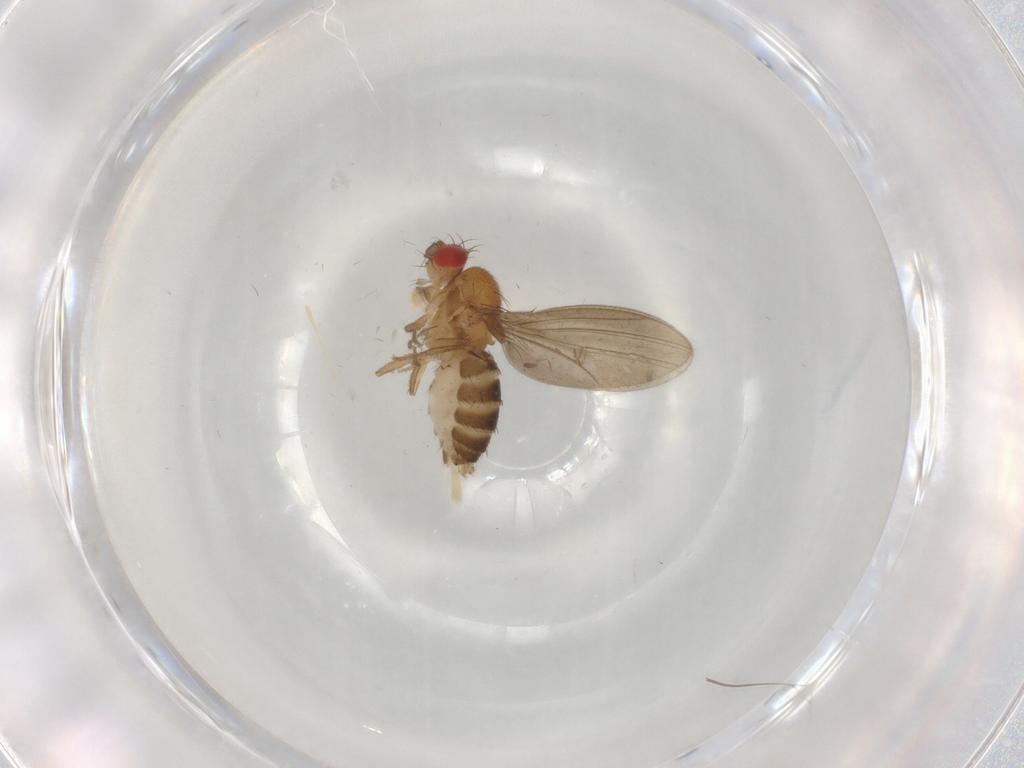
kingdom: Animalia
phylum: Arthropoda
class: Insecta
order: Diptera
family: Drosophilidae
